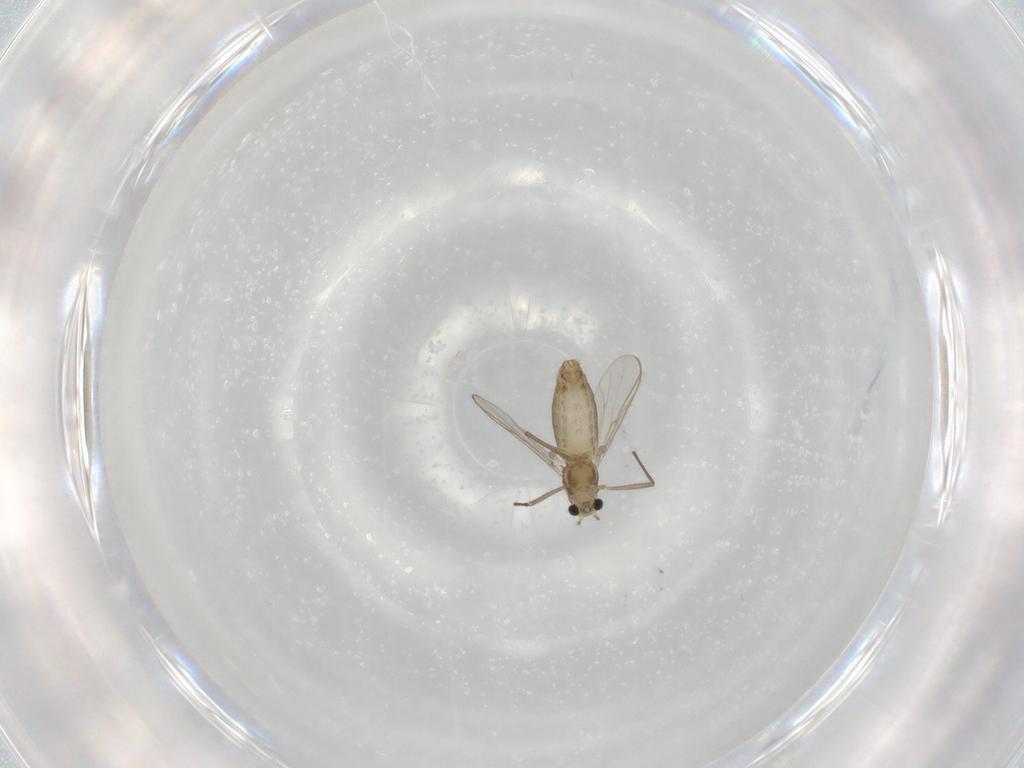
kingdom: Animalia
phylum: Arthropoda
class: Insecta
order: Diptera
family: Chironomidae
